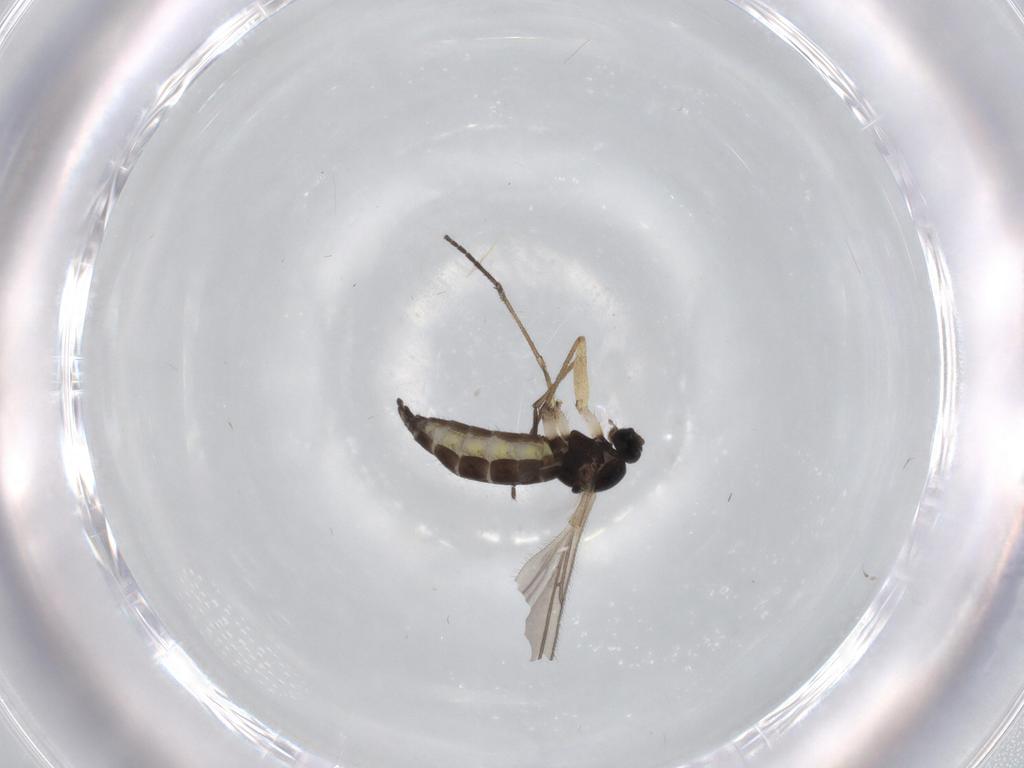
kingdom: Animalia
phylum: Arthropoda
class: Insecta
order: Diptera
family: Sciaridae
